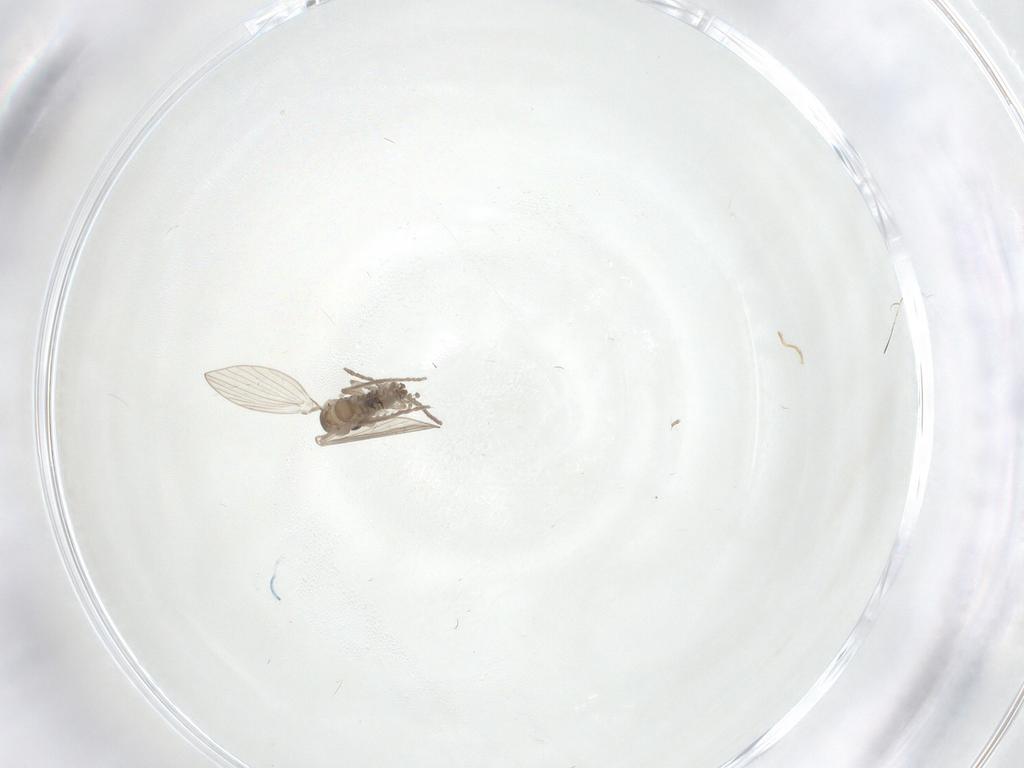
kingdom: Animalia
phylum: Arthropoda
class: Insecta
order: Diptera
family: Psychodidae
